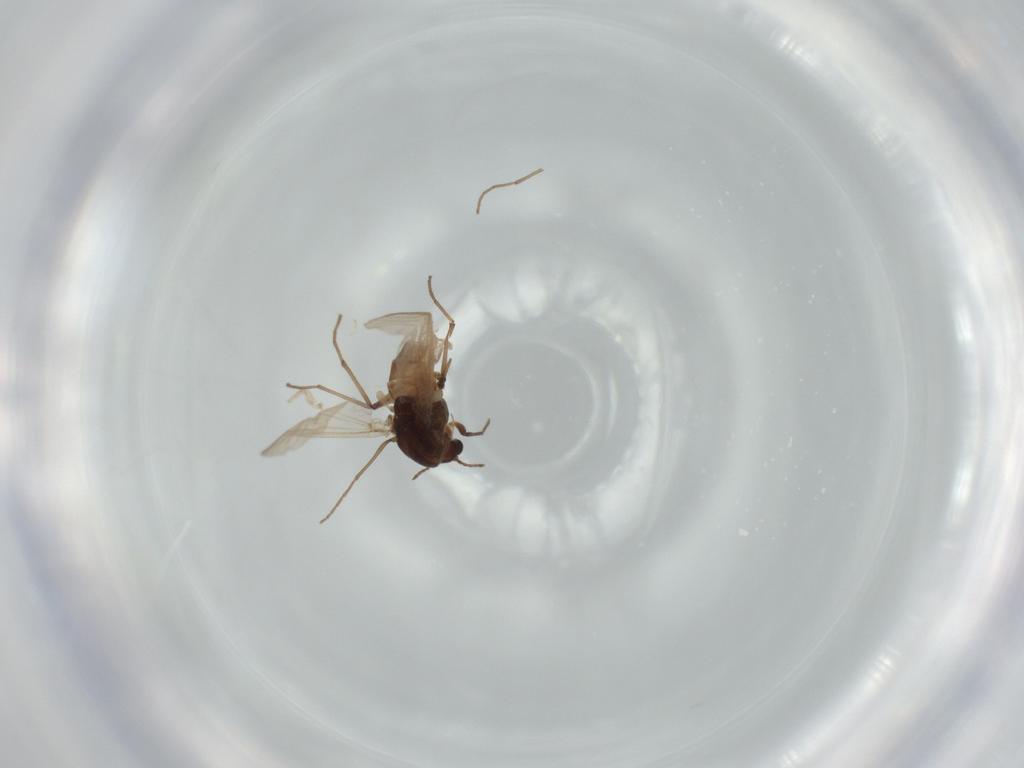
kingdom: Animalia
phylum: Arthropoda
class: Insecta
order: Diptera
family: Chironomidae
